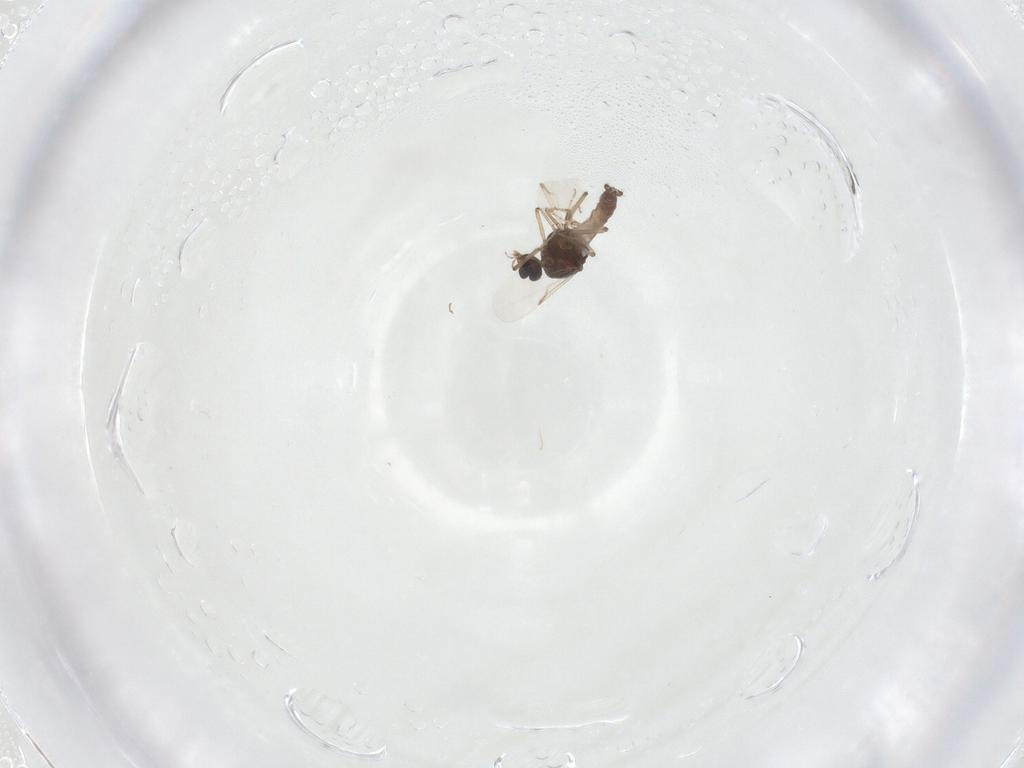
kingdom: Animalia
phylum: Arthropoda
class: Insecta
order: Diptera
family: Ceratopogonidae
